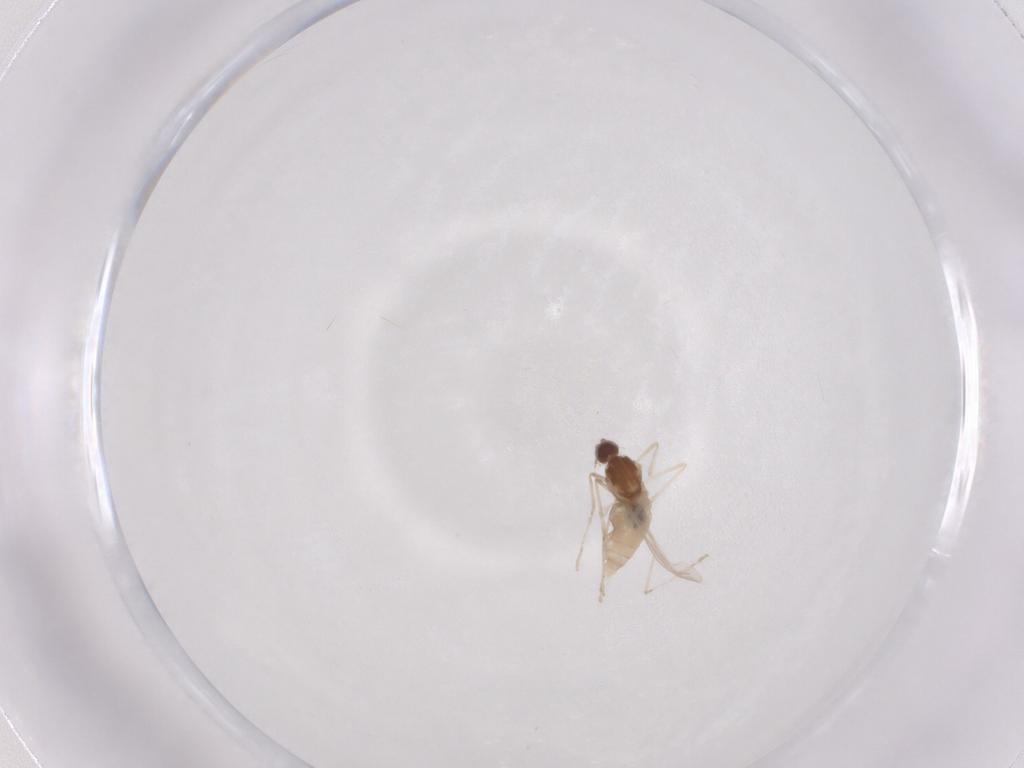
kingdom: Animalia
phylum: Arthropoda
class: Insecta
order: Diptera
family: Cecidomyiidae
